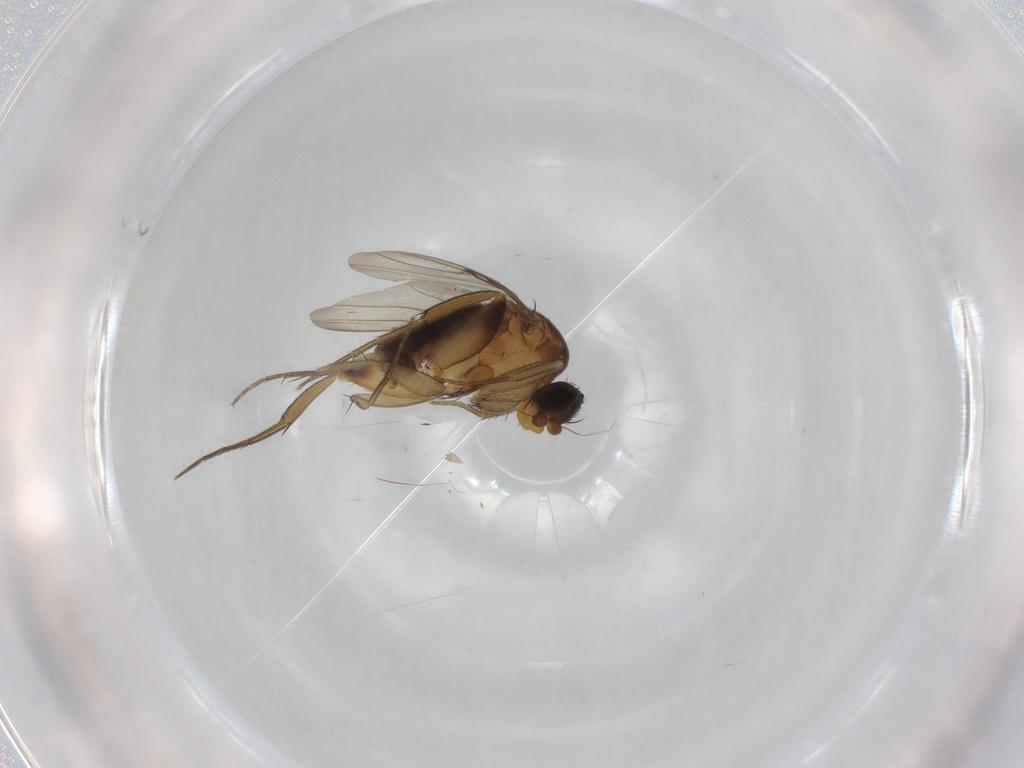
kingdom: Animalia
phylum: Arthropoda
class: Insecta
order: Diptera
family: Phoridae
